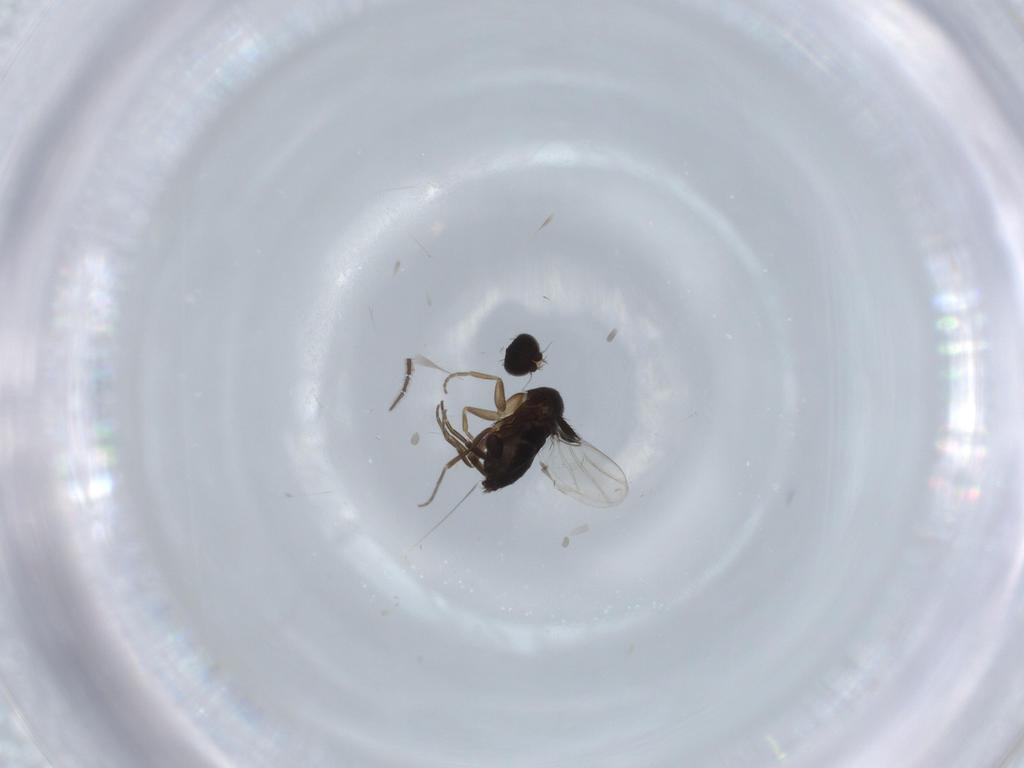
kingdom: Animalia
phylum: Arthropoda
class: Insecta
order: Diptera
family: Phoridae
